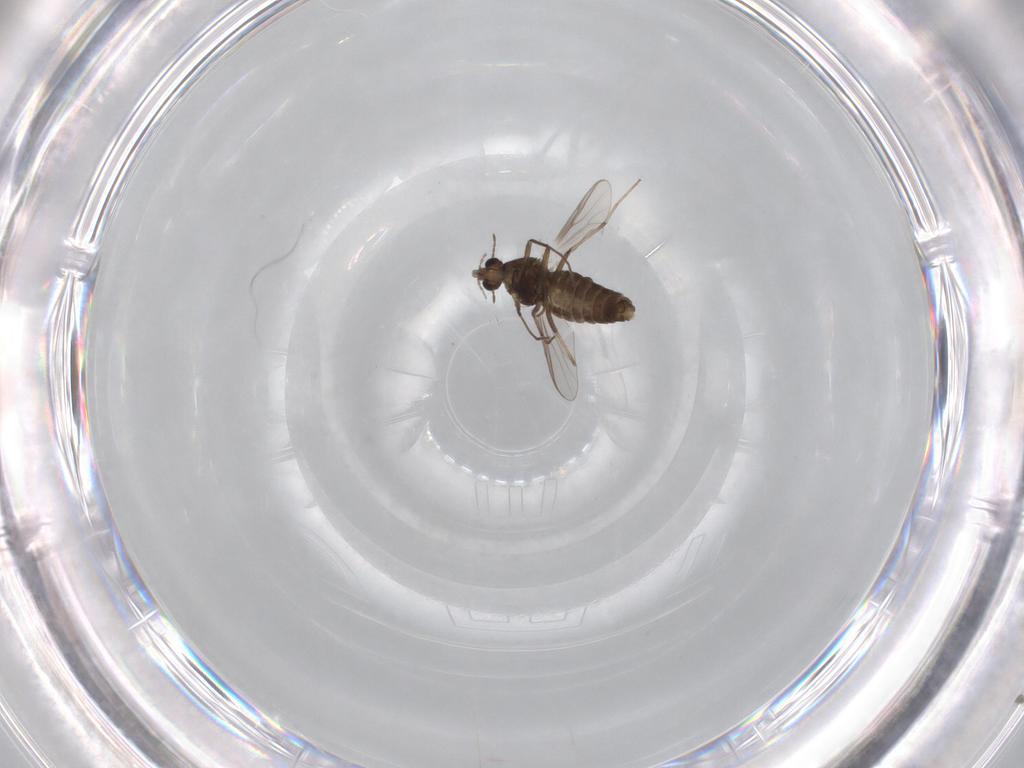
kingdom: Animalia
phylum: Arthropoda
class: Insecta
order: Diptera
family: Chironomidae
